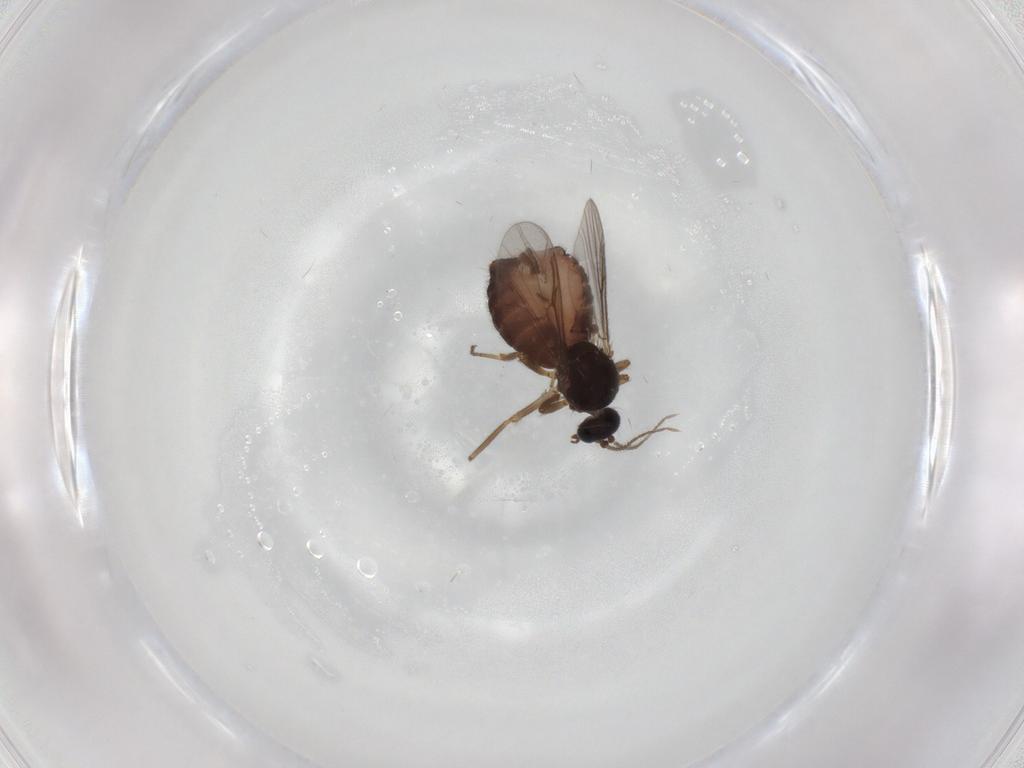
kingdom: Animalia
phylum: Arthropoda
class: Insecta
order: Diptera
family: Ceratopogonidae
